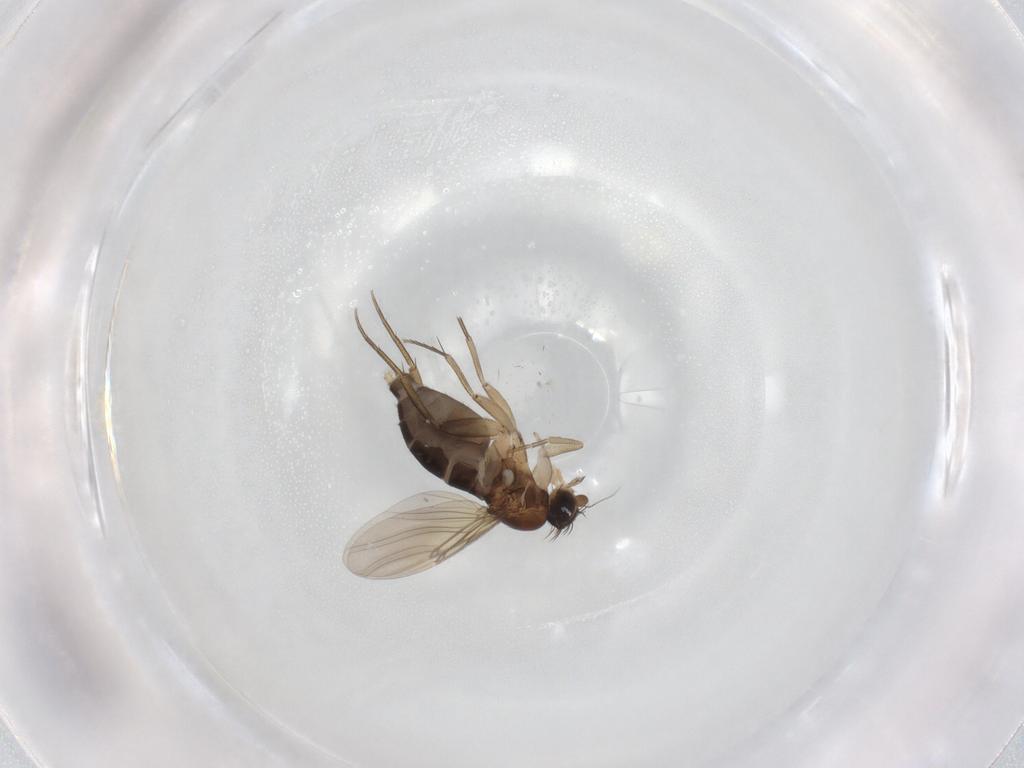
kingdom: Animalia
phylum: Arthropoda
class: Insecta
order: Diptera
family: Phoridae
